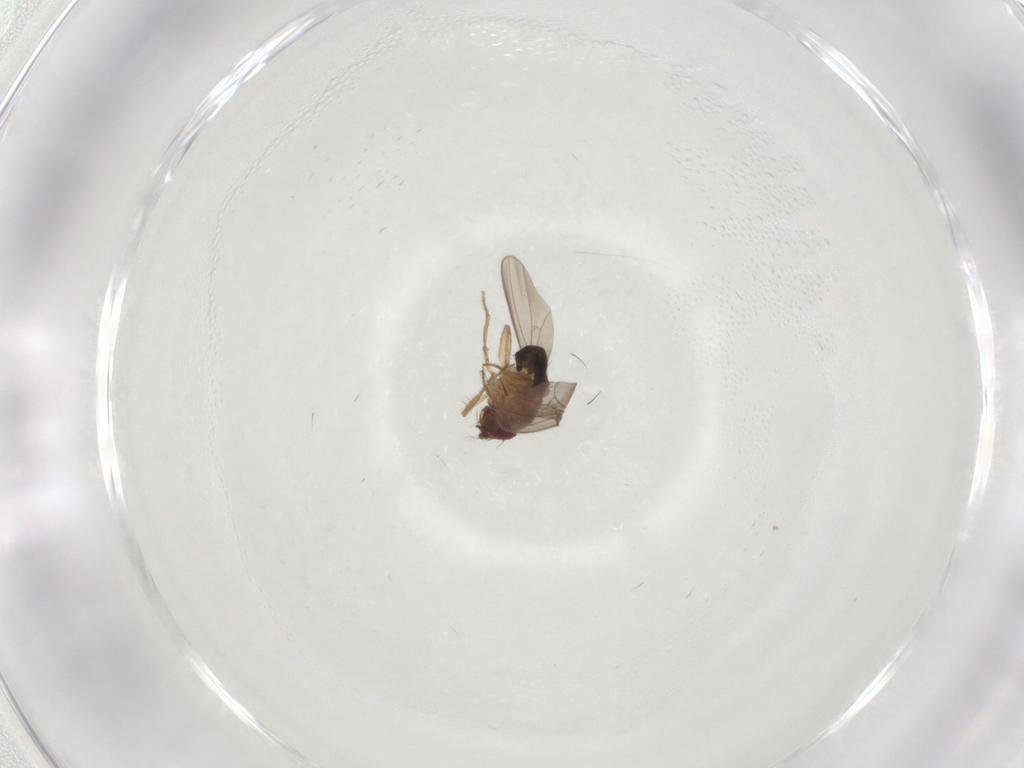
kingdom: Animalia
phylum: Arthropoda
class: Insecta
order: Diptera
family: Drosophilidae
